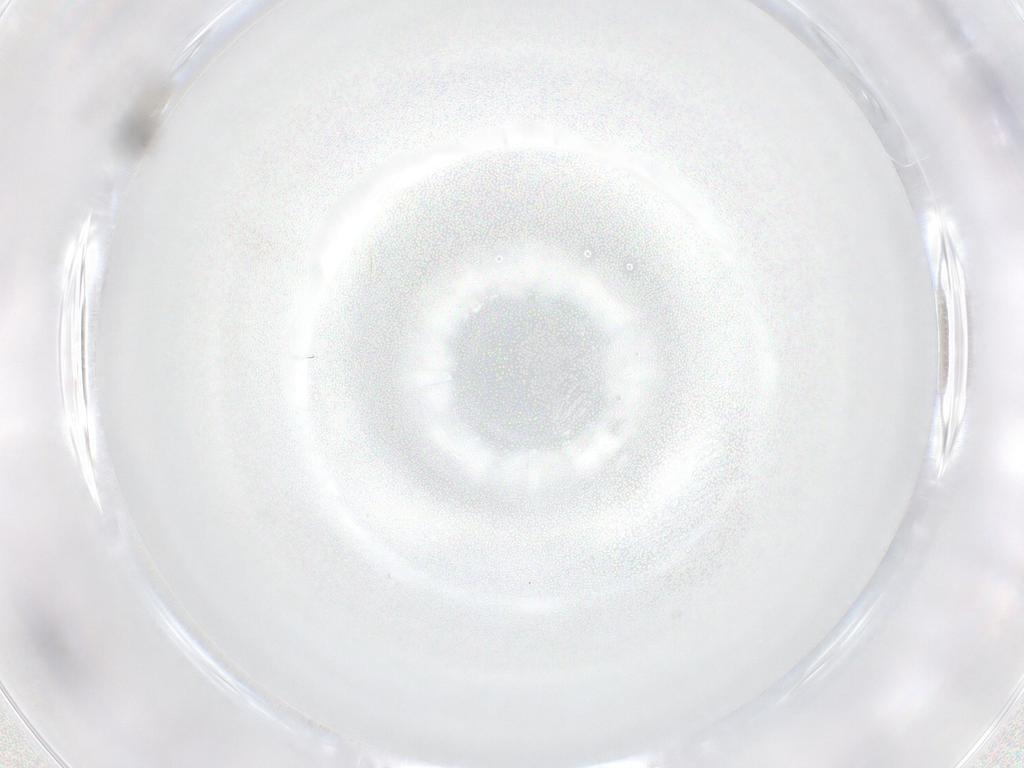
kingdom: Animalia
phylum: Arthropoda
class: Insecta
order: Diptera
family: Cecidomyiidae
